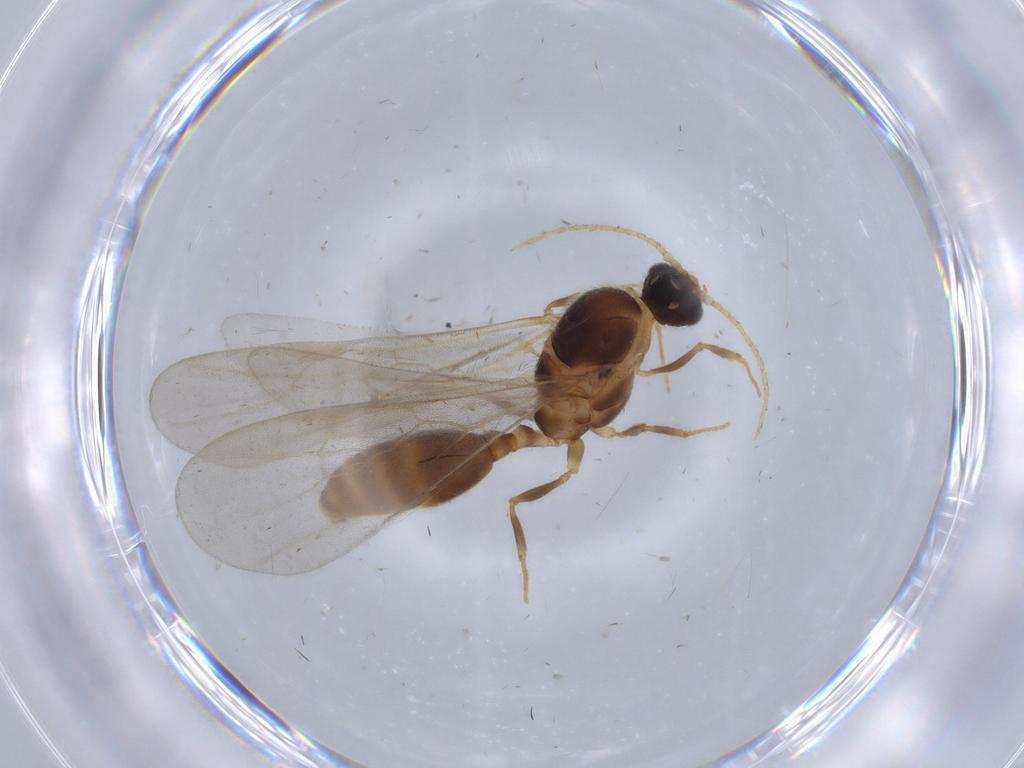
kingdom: Animalia
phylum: Arthropoda
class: Insecta
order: Hymenoptera
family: Formicidae
